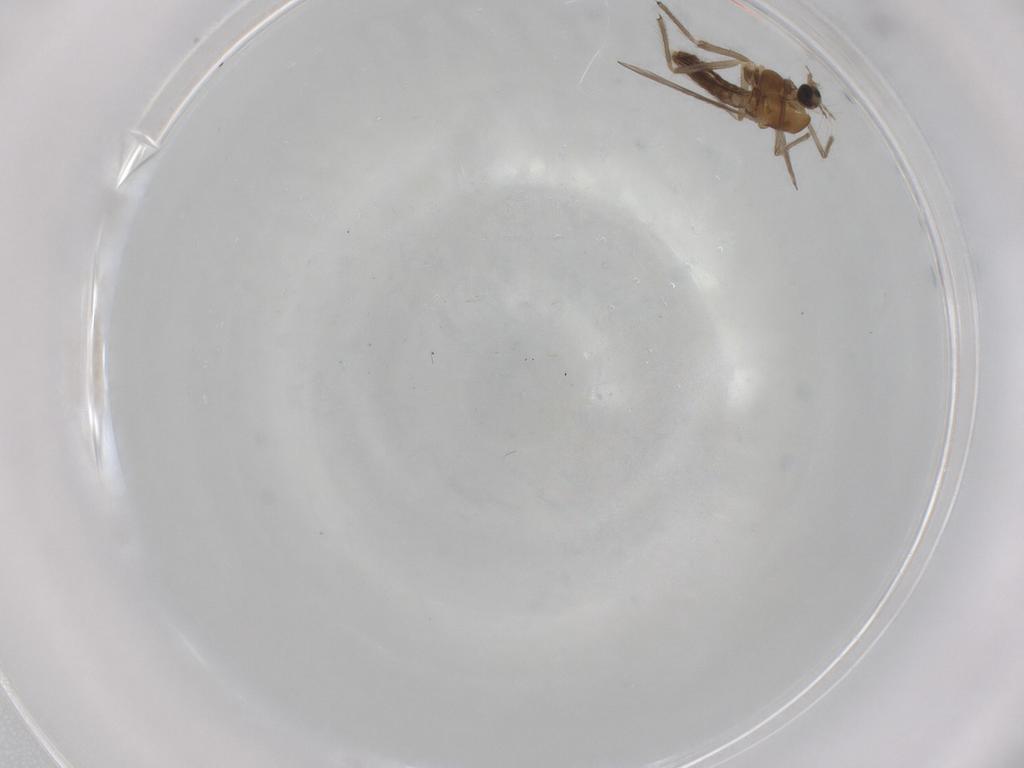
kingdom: Animalia
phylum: Arthropoda
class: Insecta
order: Diptera
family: Chironomidae
